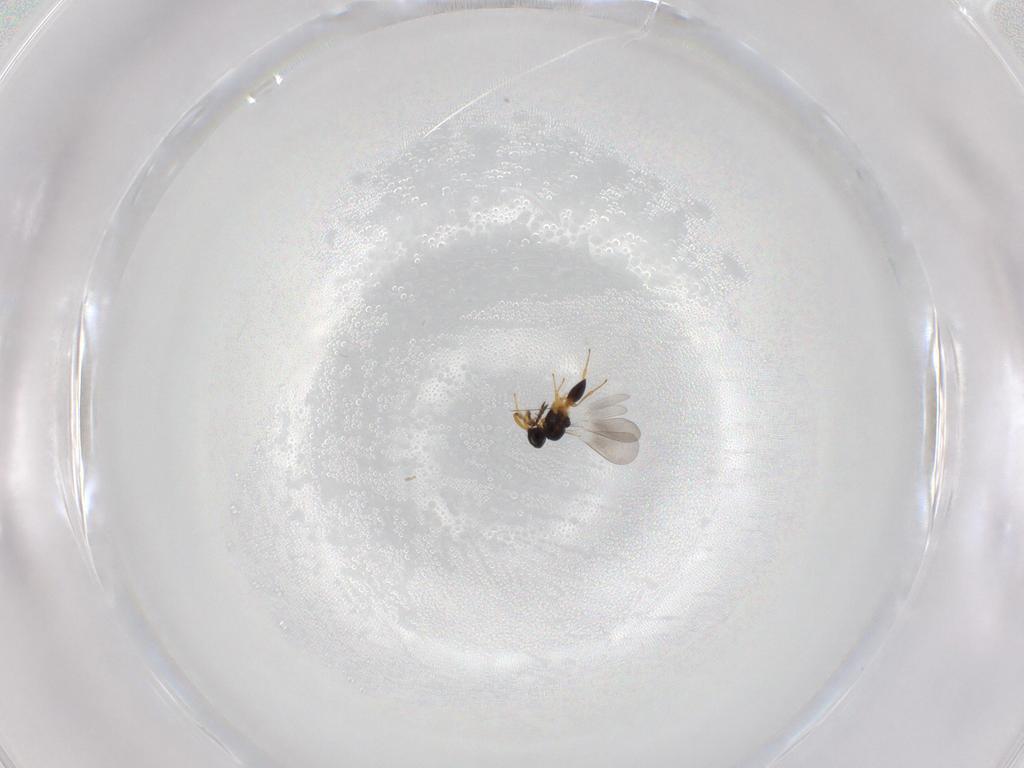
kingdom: Animalia
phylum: Arthropoda
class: Insecta
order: Hymenoptera
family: Platygastridae
